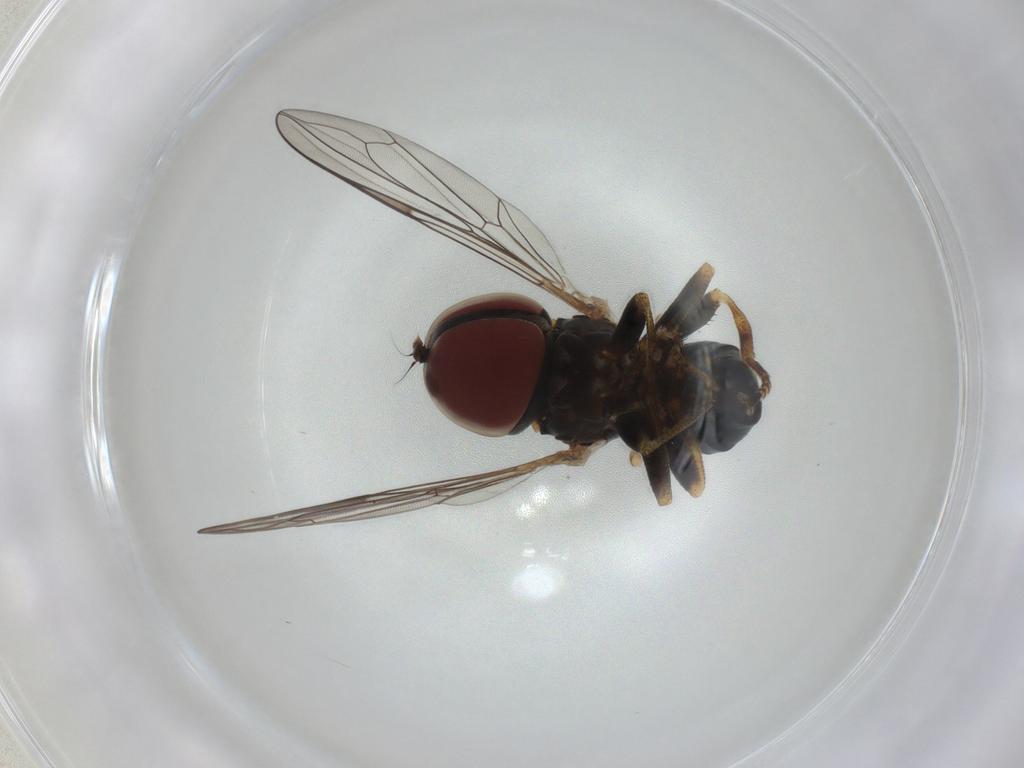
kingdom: Animalia
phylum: Arthropoda
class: Insecta
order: Diptera
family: Pipunculidae
